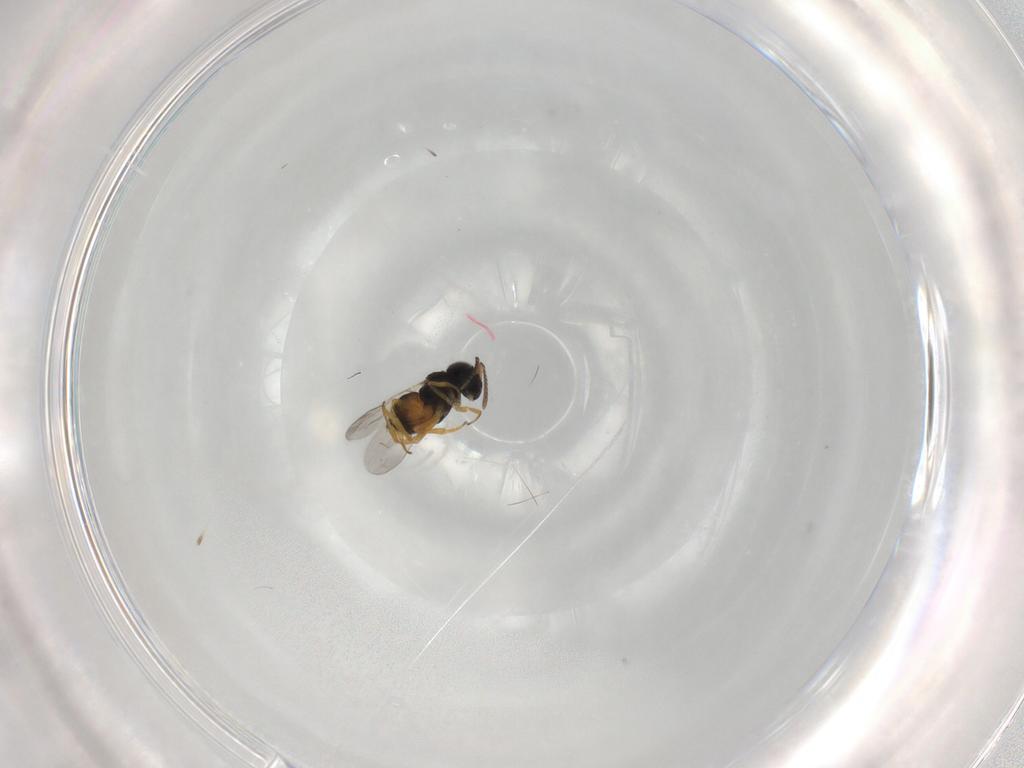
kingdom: Animalia
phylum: Arthropoda
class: Insecta
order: Hymenoptera
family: Encyrtidae
